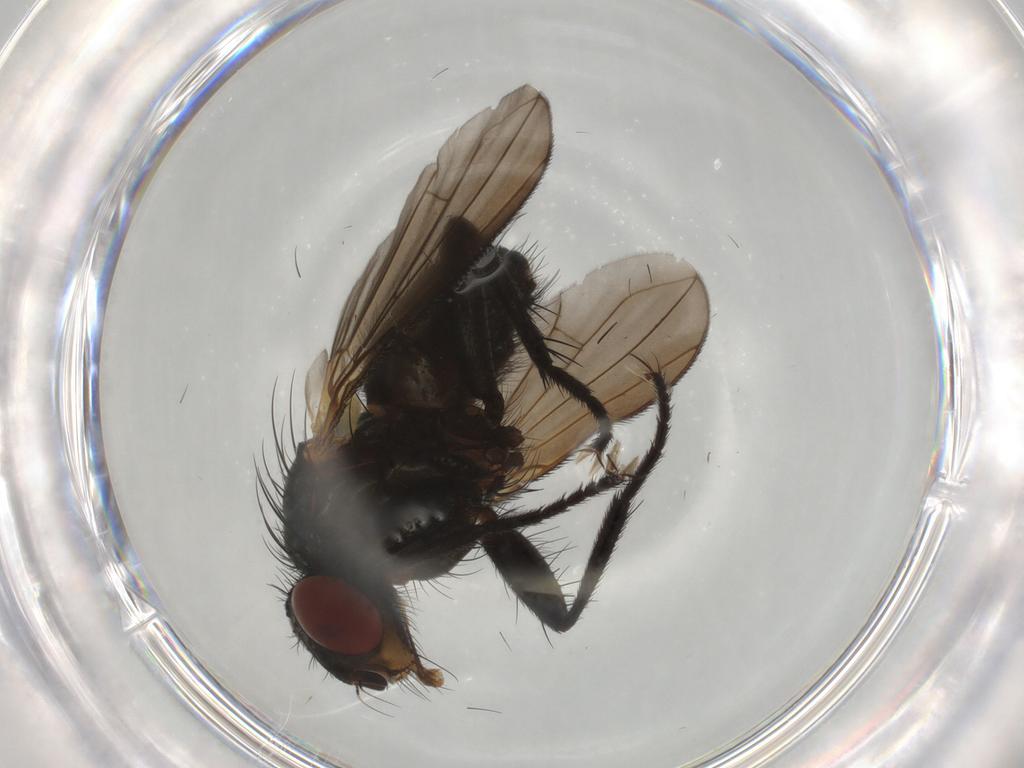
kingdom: Animalia
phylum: Arthropoda
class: Insecta
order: Diptera
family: Calliphoridae
